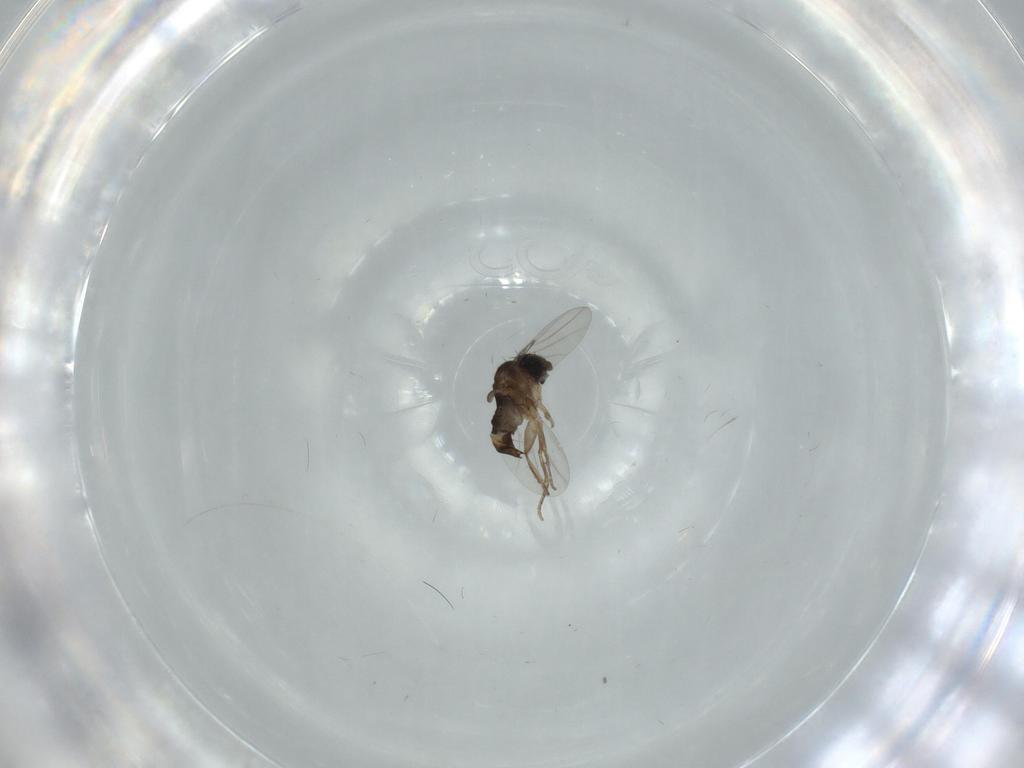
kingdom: Animalia
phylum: Arthropoda
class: Insecta
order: Diptera
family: Phoridae
